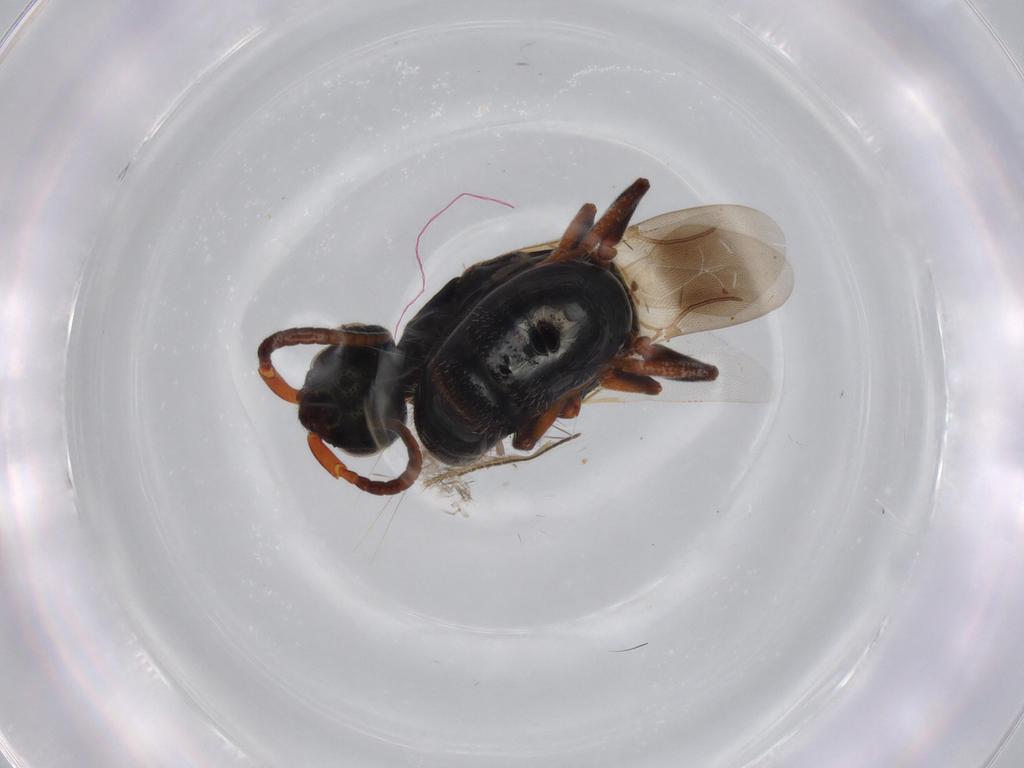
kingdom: Animalia
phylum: Arthropoda
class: Insecta
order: Hymenoptera
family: Bethylidae
